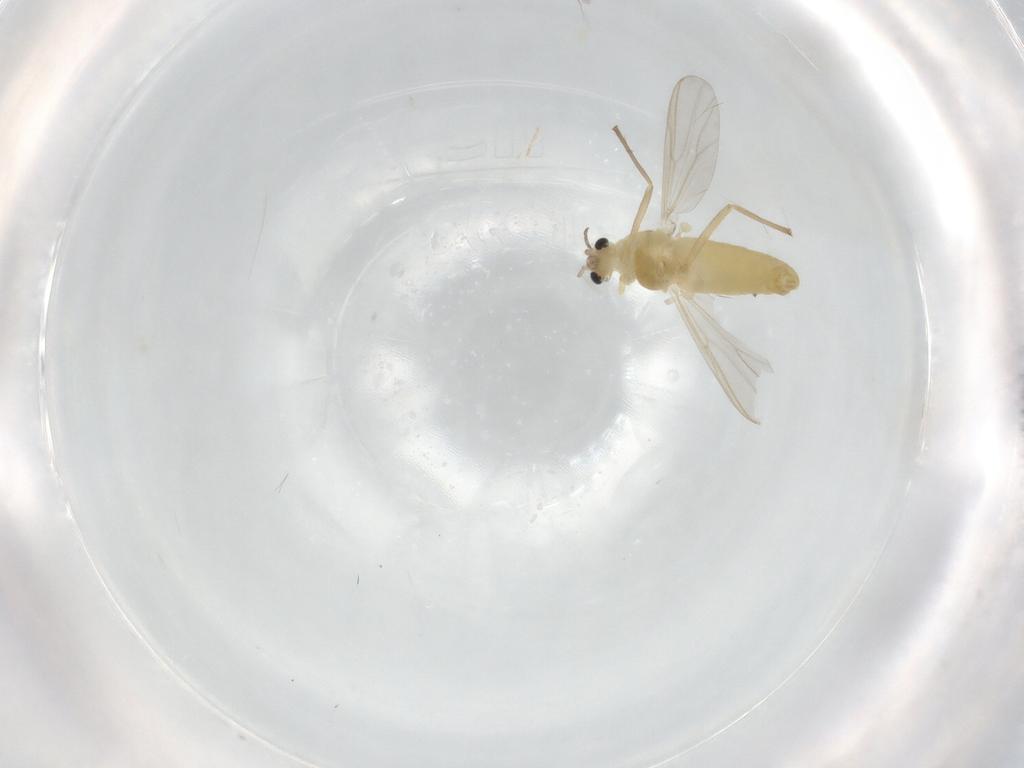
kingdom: Animalia
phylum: Arthropoda
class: Insecta
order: Diptera
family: Chironomidae
